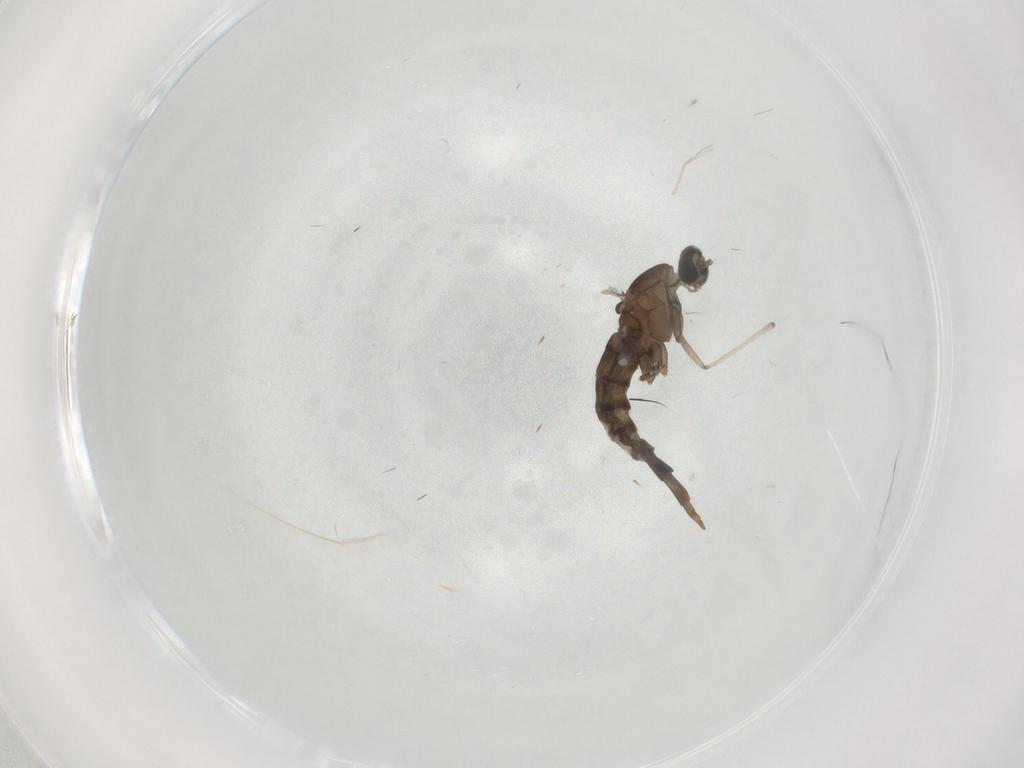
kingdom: Animalia
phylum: Arthropoda
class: Insecta
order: Diptera
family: Cecidomyiidae
